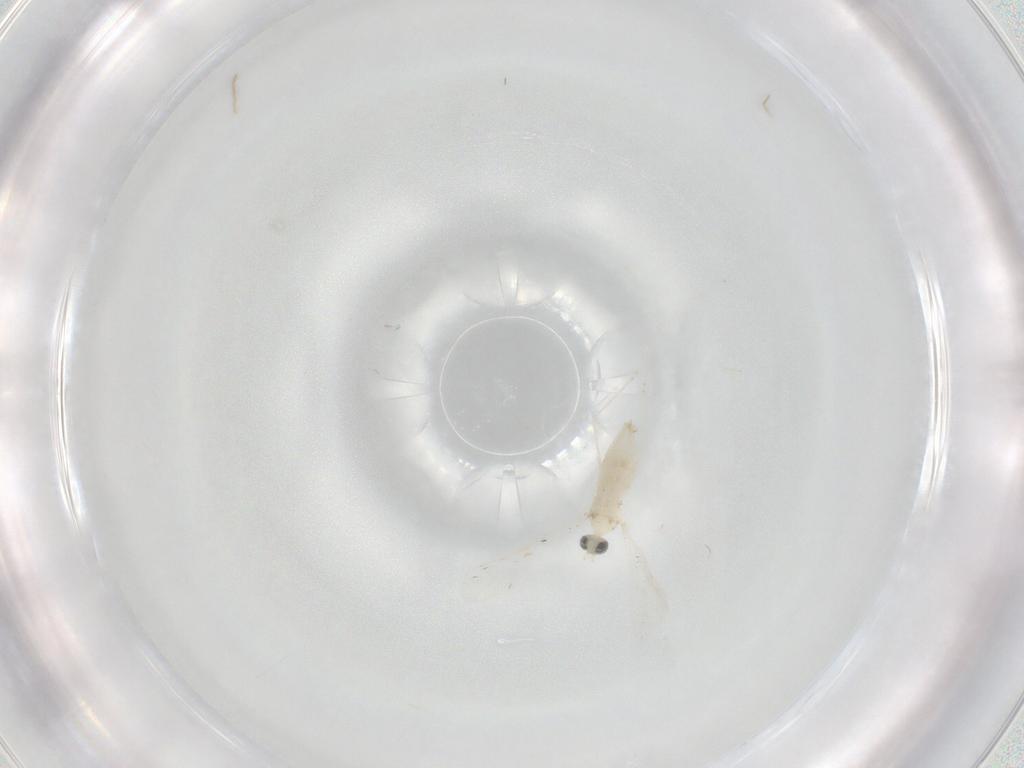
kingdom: Animalia
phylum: Arthropoda
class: Insecta
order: Diptera
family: Cecidomyiidae
